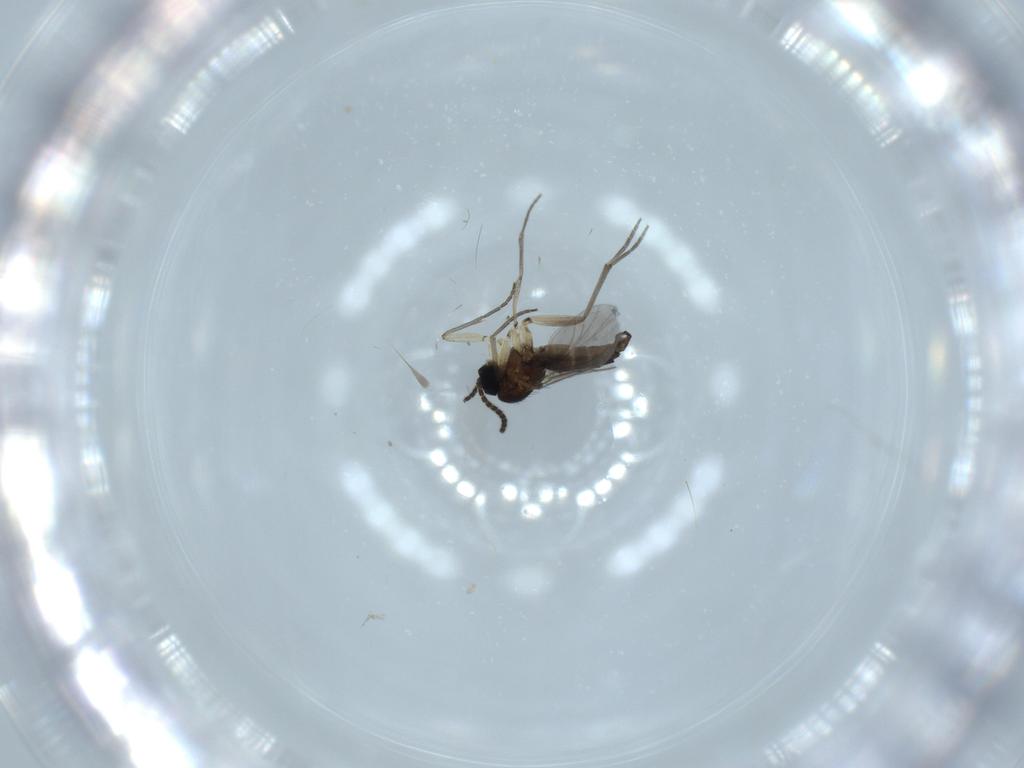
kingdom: Animalia
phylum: Arthropoda
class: Insecta
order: Diptera
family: Sciaridae
